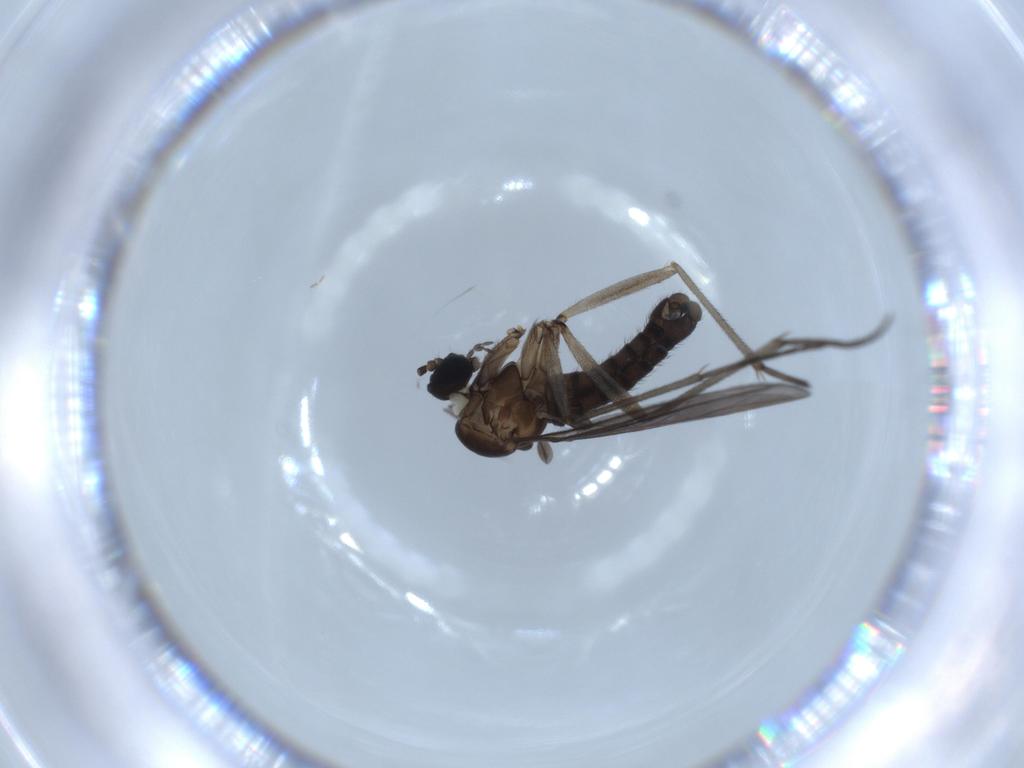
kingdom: Animalia
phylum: Arthropoda
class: Insecta
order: Diptera
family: Sciaridae
